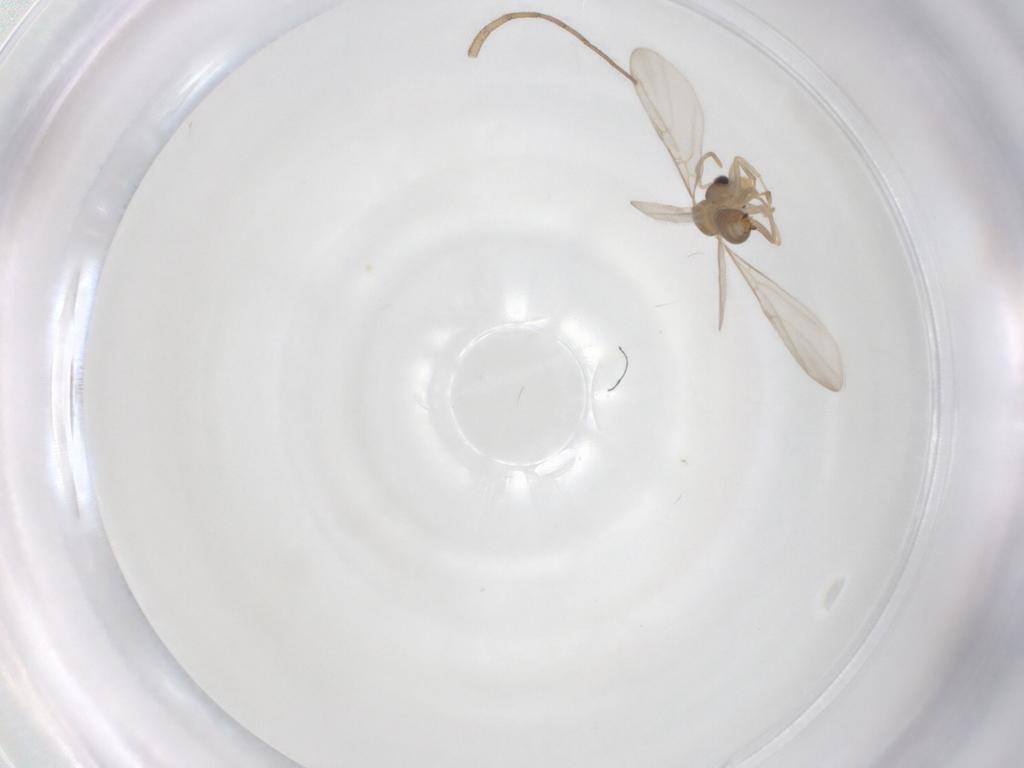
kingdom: Animalia
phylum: Arthropoda
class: Insecta
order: Hymenoptera
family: Formicidae
